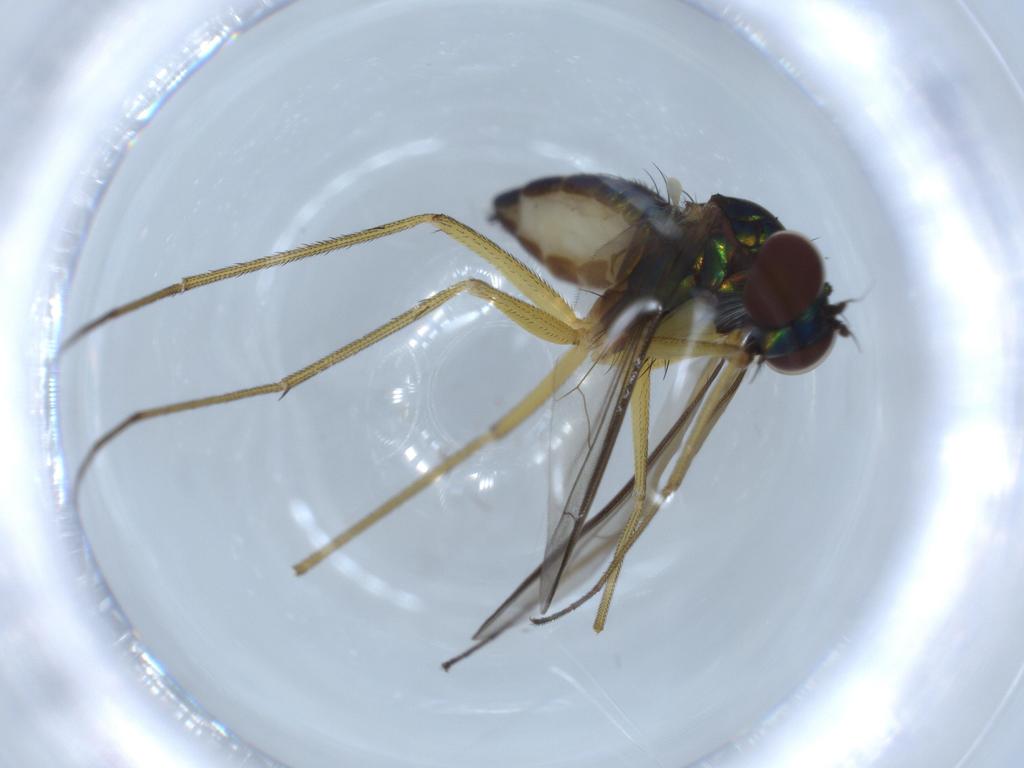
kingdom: Animalia
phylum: Arthropoda
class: Insecta
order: Diptera
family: Dolichopodidae
